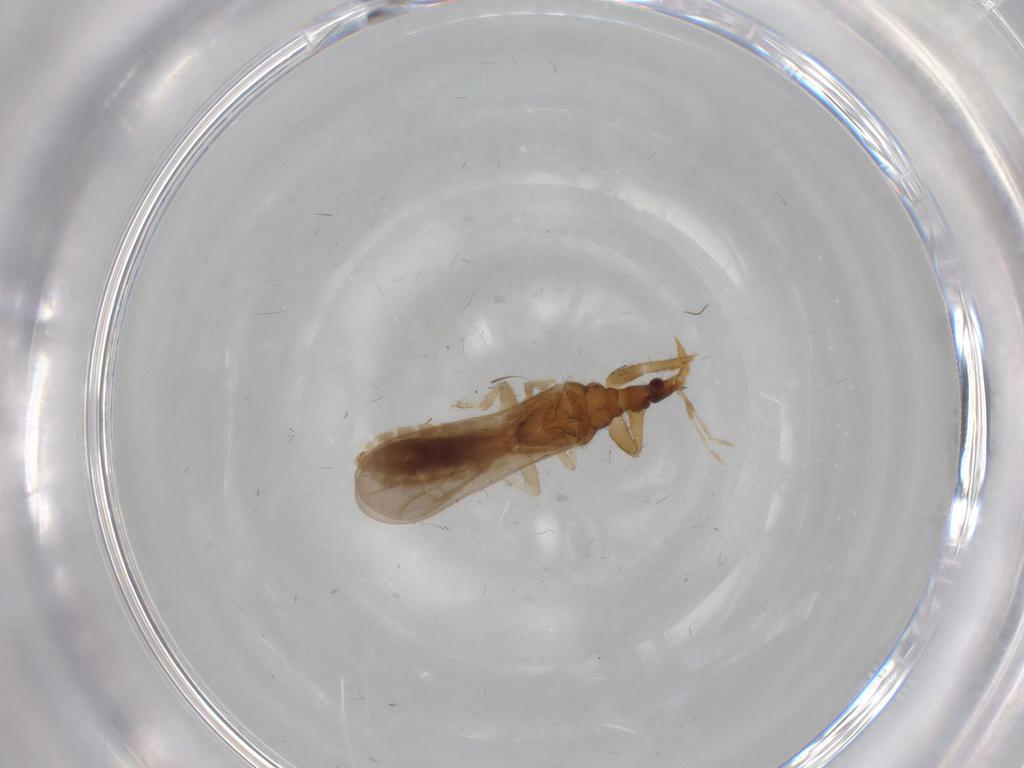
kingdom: Animalia
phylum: Arthropoda
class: Insecta
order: Hemiptera
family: Cicadellidae
